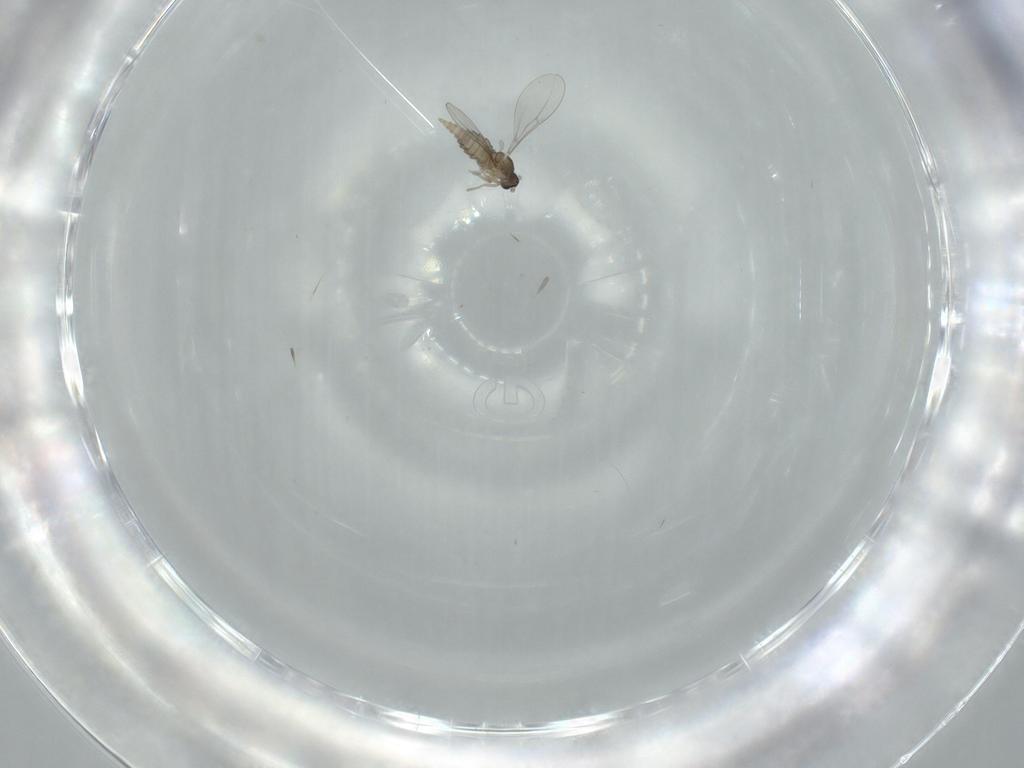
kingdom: Animalia
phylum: Arthropoda
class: Insecta
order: Diptera
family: Cecidomyiidae
